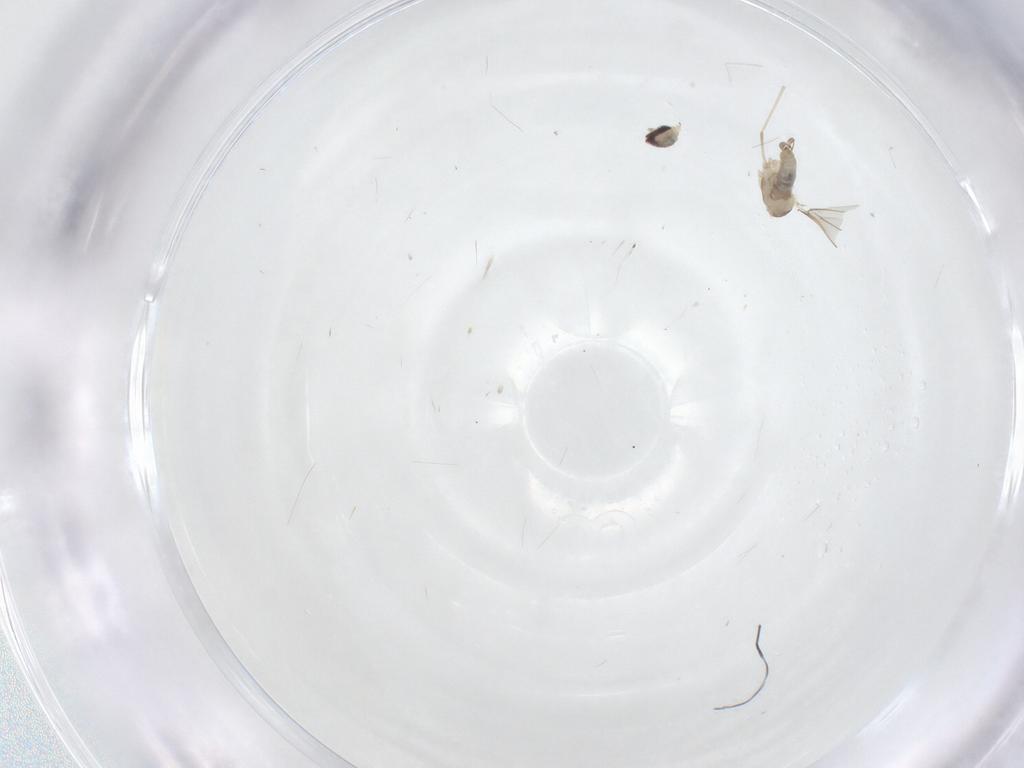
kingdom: Animalia
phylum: Arthropoda
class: Insecta
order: Diptera
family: Cecidomyiidae
